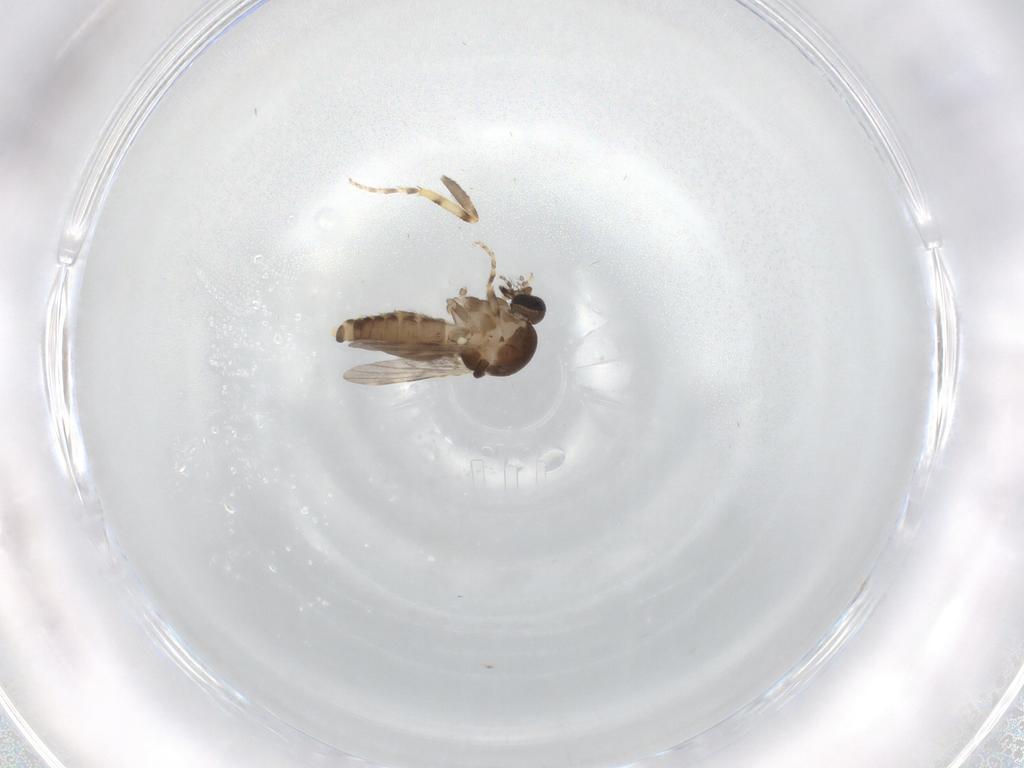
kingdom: Animalia
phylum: Arthropoda
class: Insecta
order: Diptera
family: Ceratopogonidae
